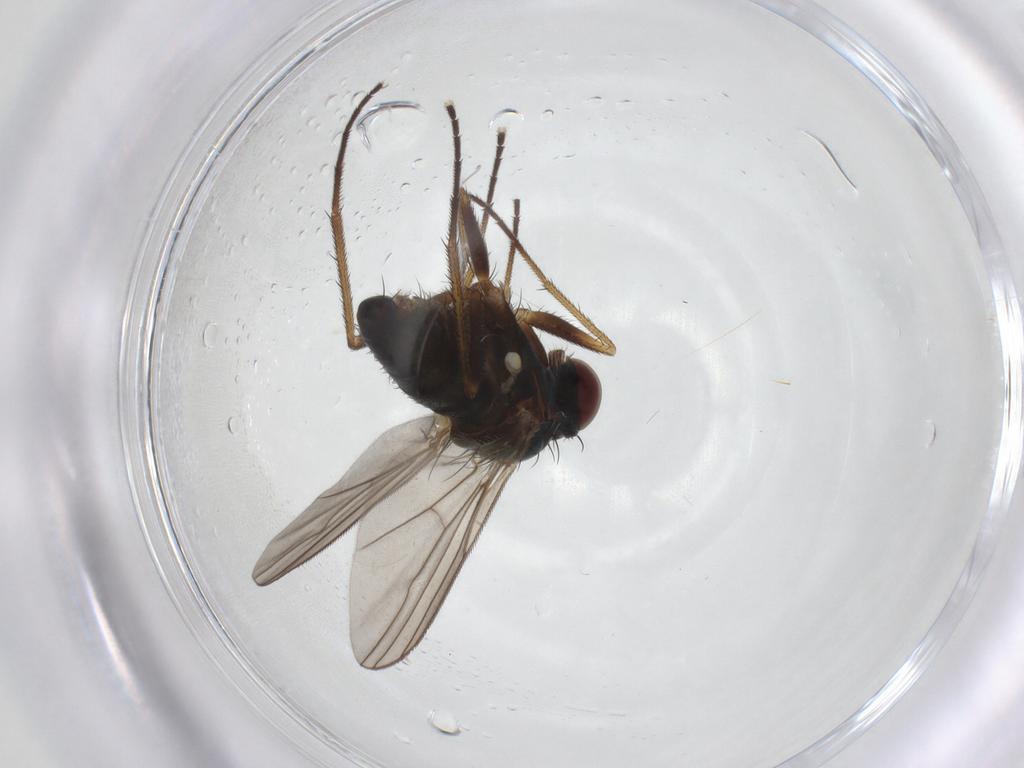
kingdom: Animalia
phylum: Arthropoda
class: Insecta
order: Diptera
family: Dolichopodidae
